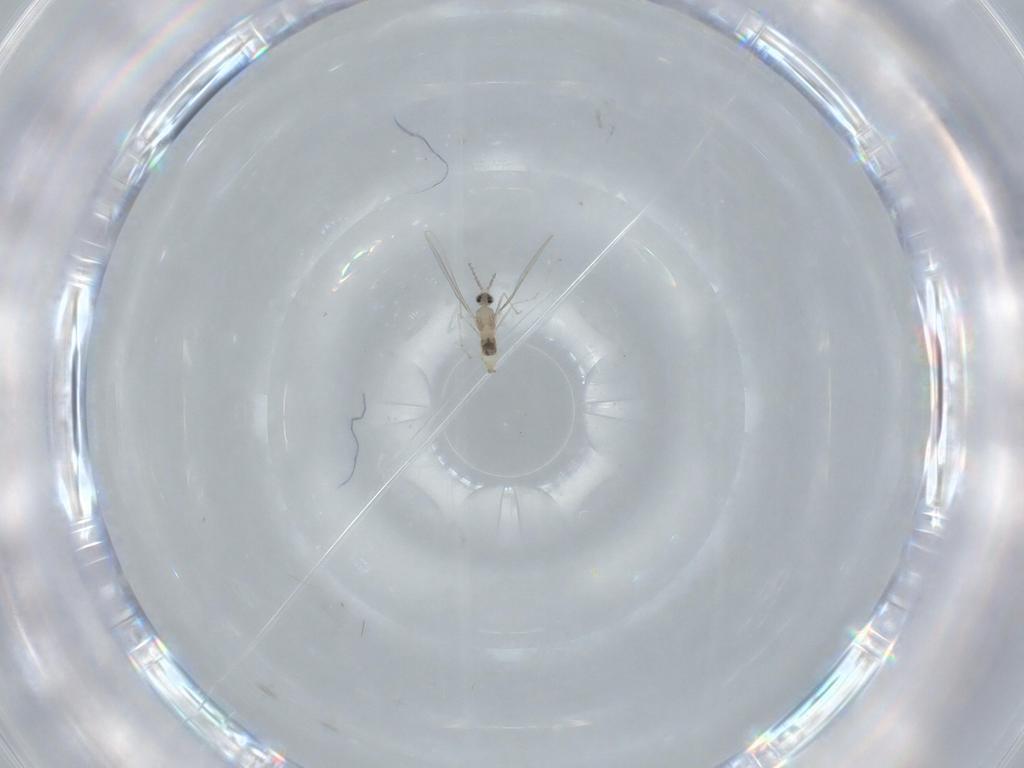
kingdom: Animalia
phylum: Arthropoda
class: Insecta
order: Diptera
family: Cecidomyiidae
